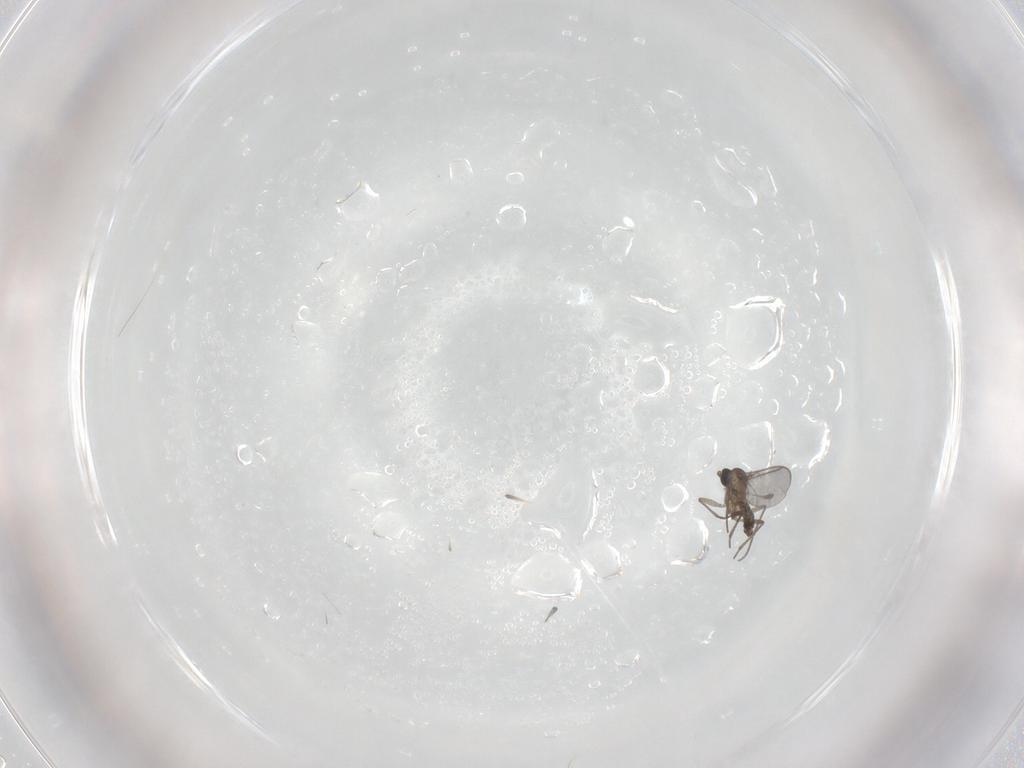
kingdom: Animalia
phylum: Arthropoda
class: Insecta
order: Diptera
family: Sciaridae
